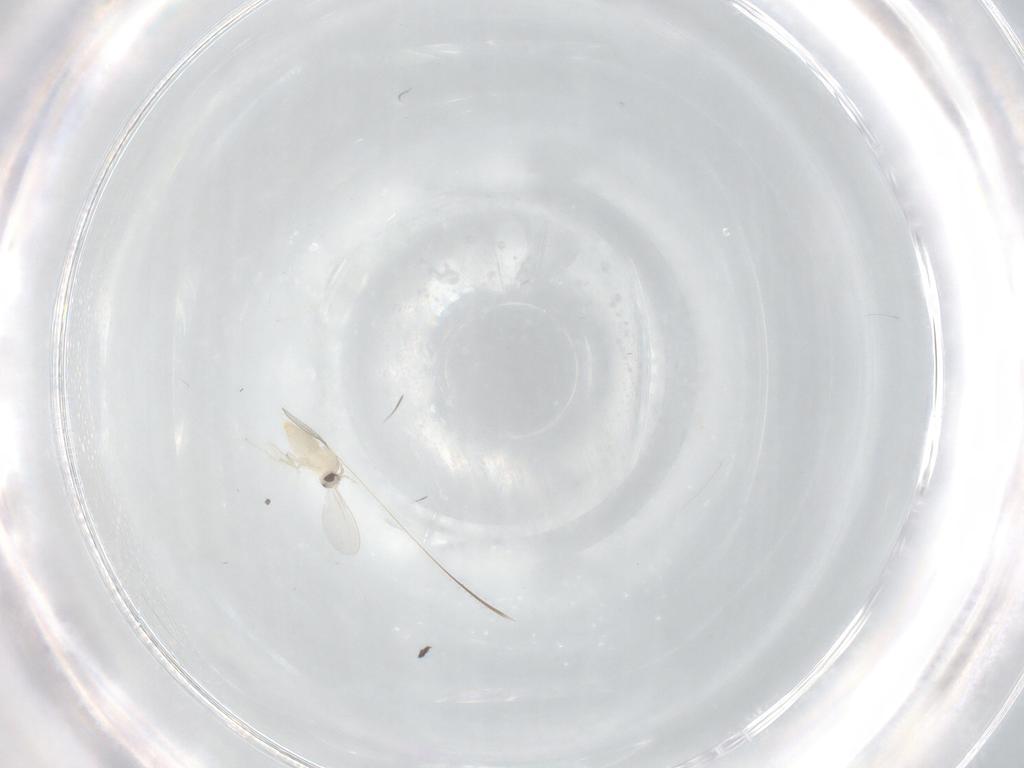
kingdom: Animalia
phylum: Arthropoda
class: Insecta
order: Diptera
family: Cecidomyiidae
